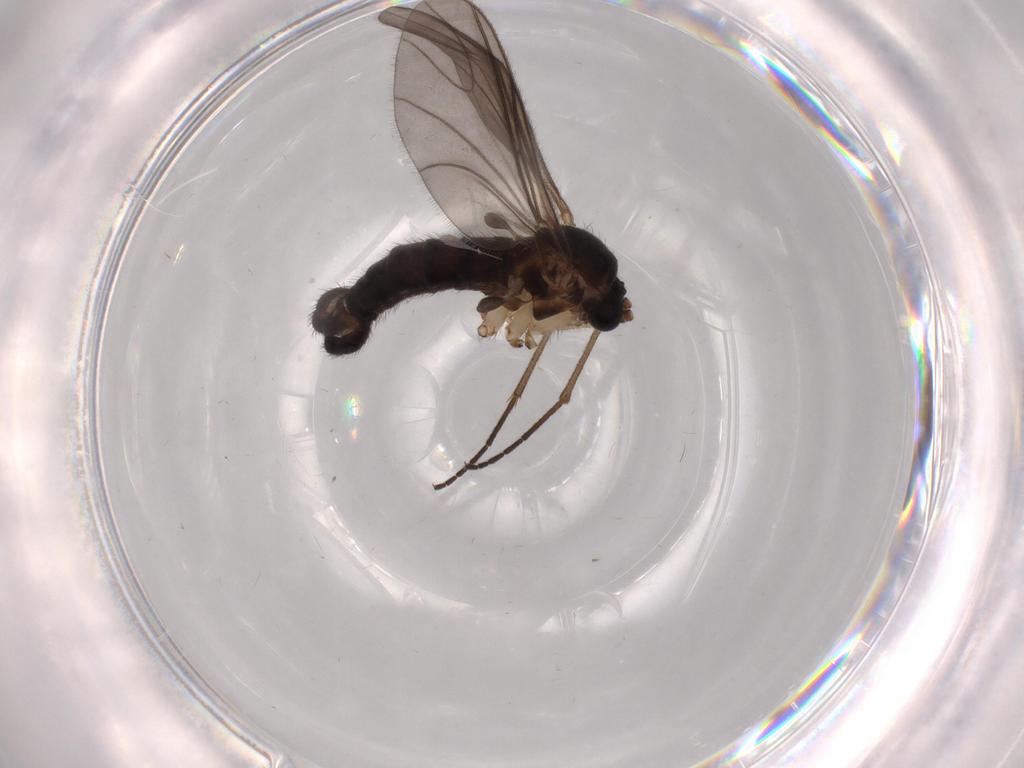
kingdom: Animalia
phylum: Arthropoda
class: Insecta
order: Diptera
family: Sciaridae
